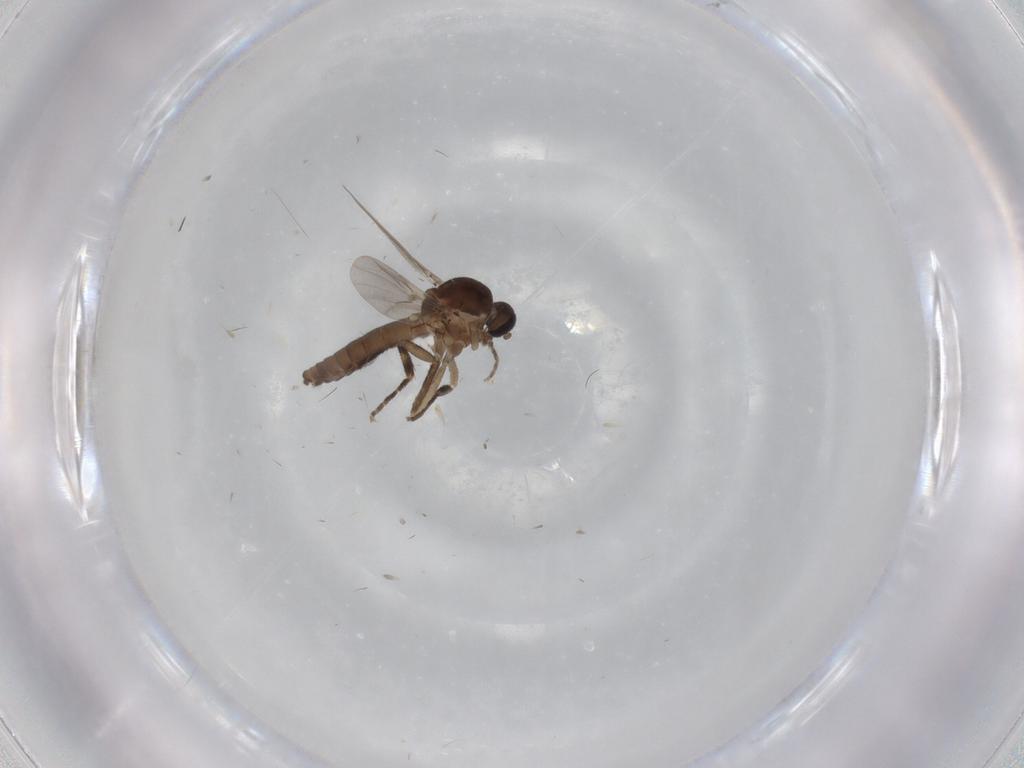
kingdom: Animalia
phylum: Arthropoda
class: Insecta
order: Diptera
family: Ceratopogonidae
